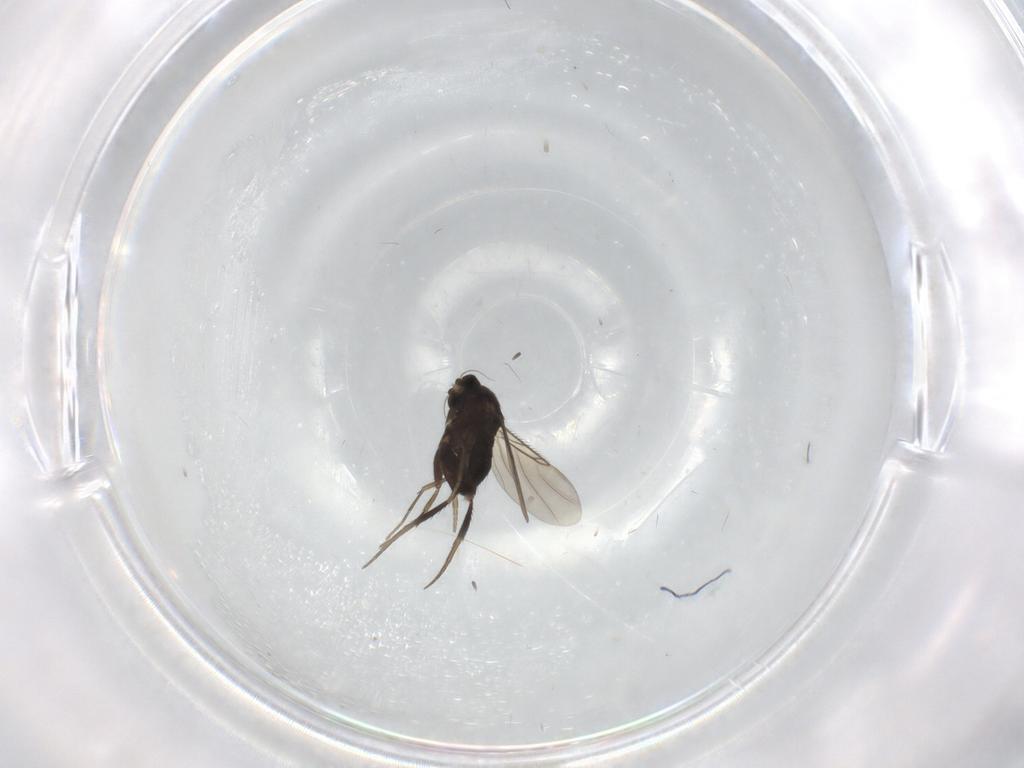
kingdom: Animalia
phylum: Arthropoda
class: Insecta
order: Diptera
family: Cecidomyiidae
